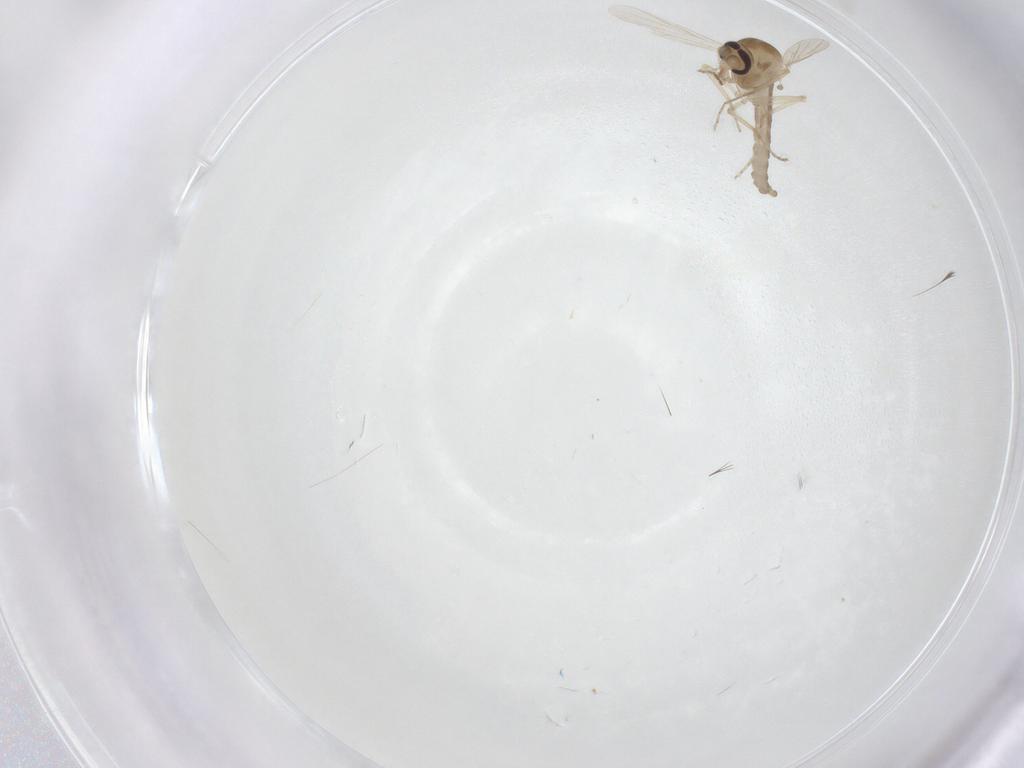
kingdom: Animalia
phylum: Arthropoda
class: Insecta
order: Diptera
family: Ceratopogonidae
